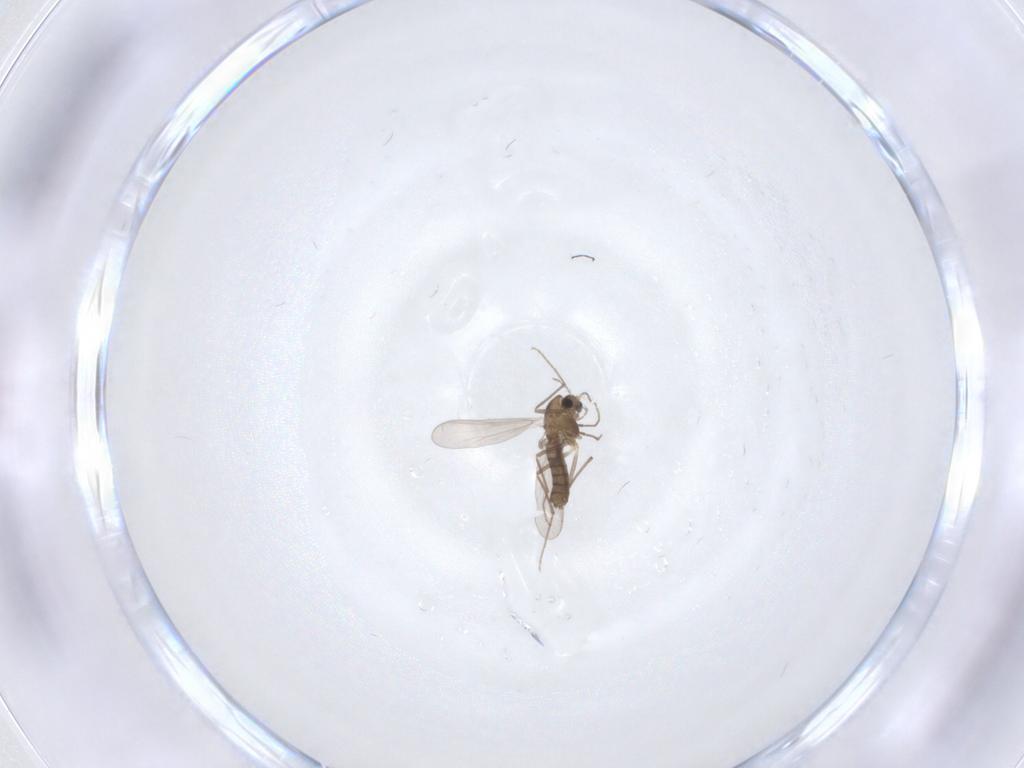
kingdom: Animalia
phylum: Arthropoda
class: Insecta
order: Diptera
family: Chironomidae
